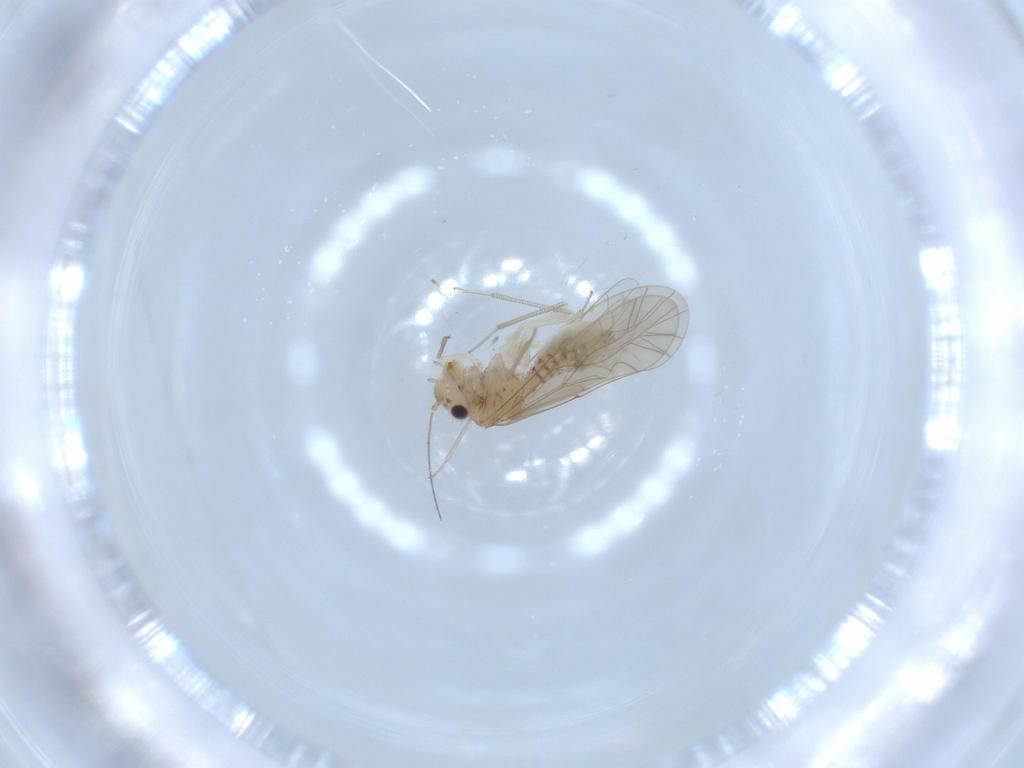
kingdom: Animalia
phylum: Arthropoda
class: Insecta
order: Psocodea
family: Lachesillidae
